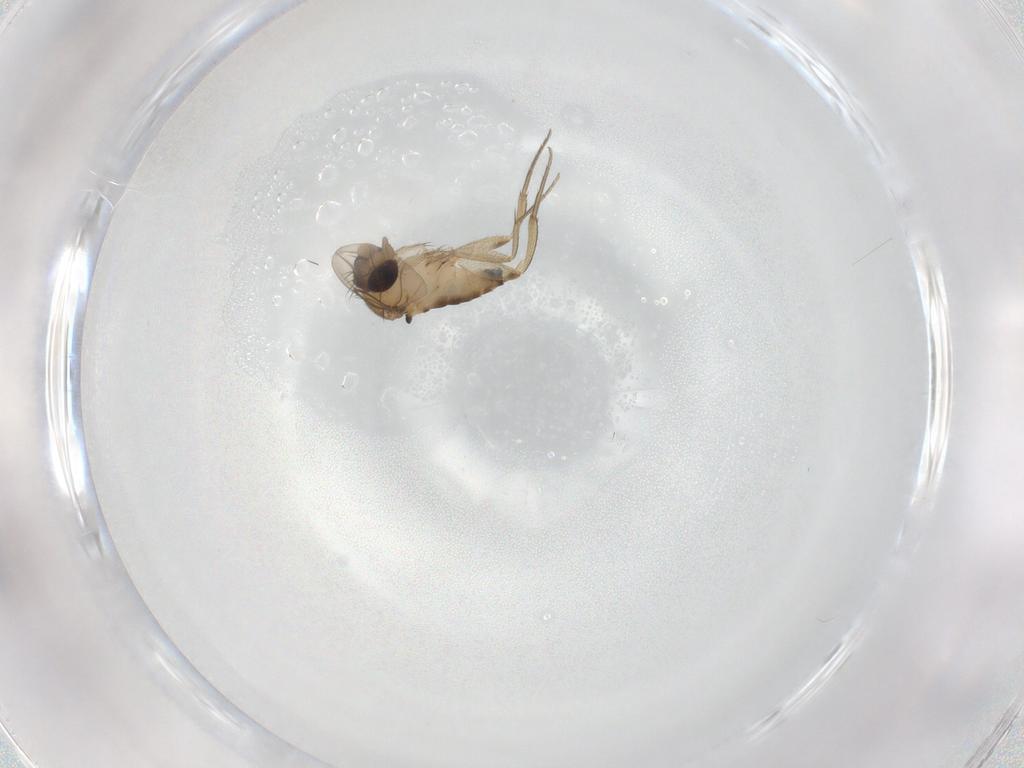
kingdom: Animalia
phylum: Arthropoda
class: Insecta
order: Diptera
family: Phoridae
